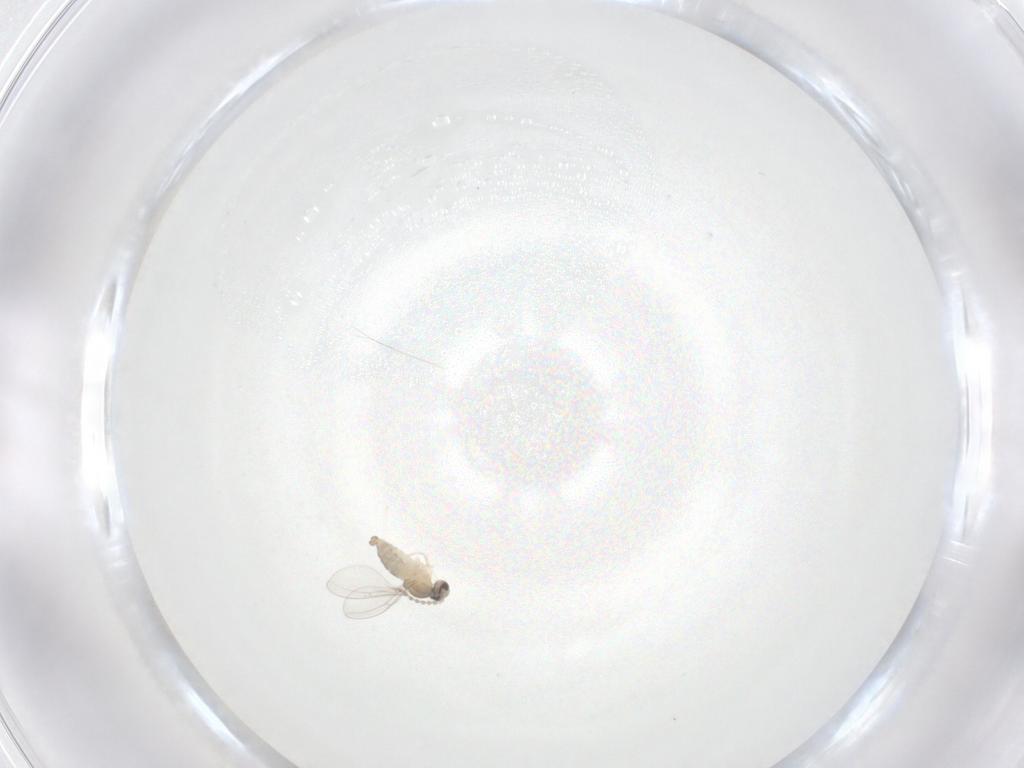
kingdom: Animalia
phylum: Arthropoda
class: Insecta
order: Diptera
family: Cecidomyiidae
